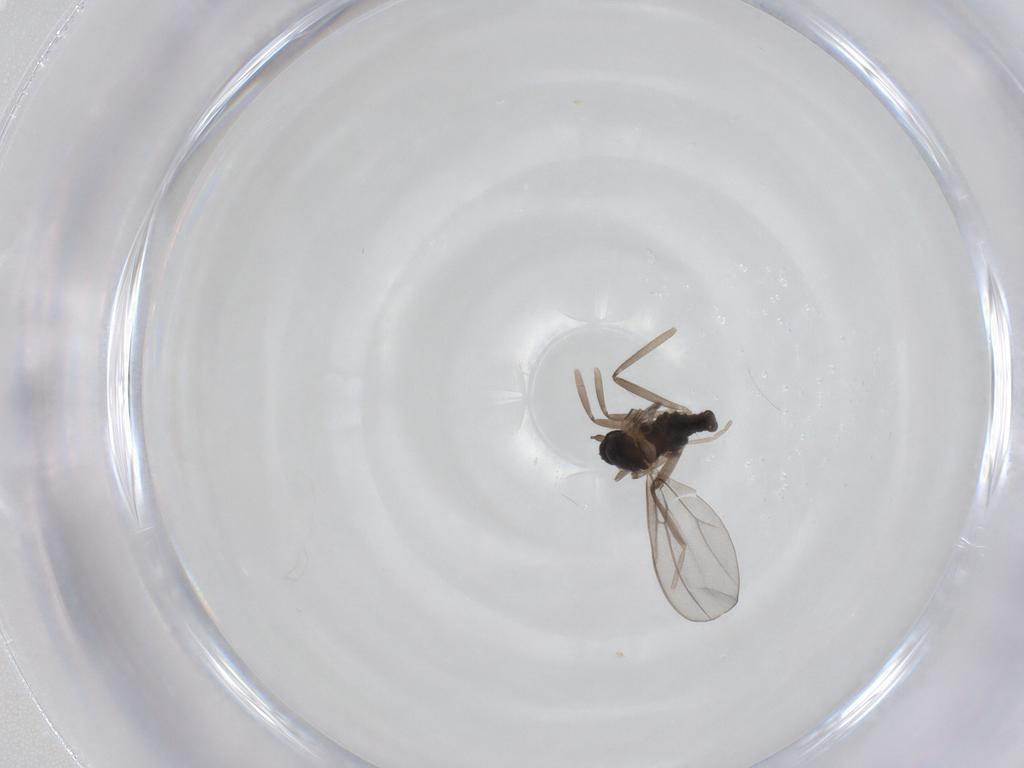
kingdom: Animalia
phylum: Arthropoda
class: Insecta
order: Diptera
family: Cecidomyiidae
